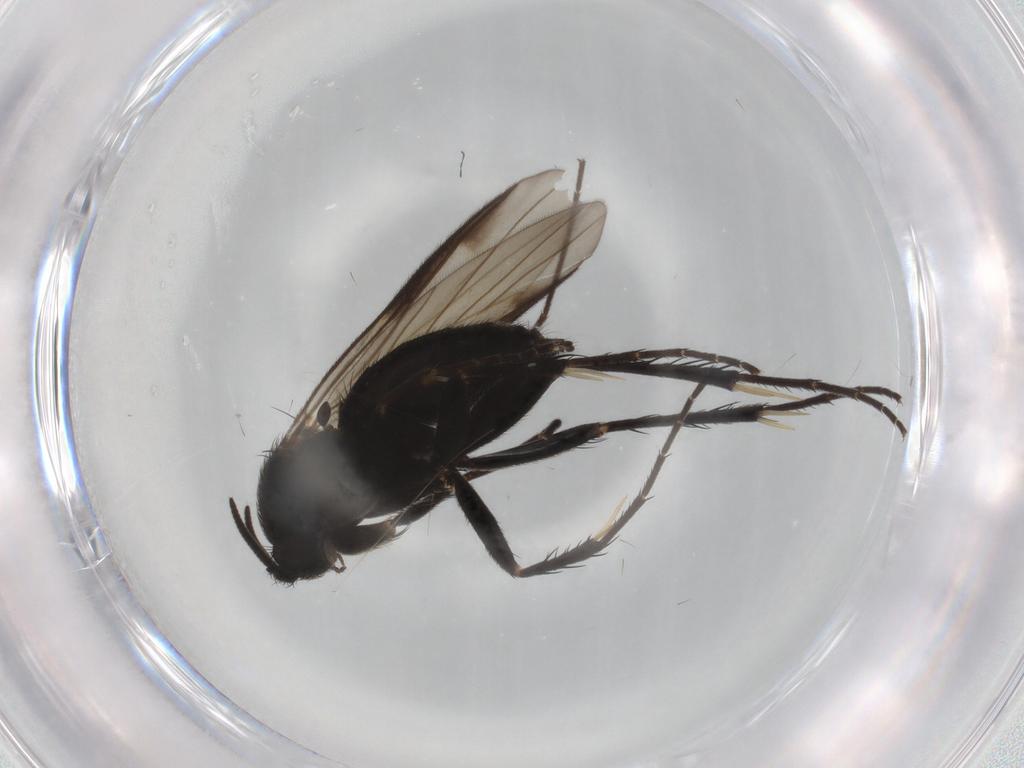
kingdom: Animalia
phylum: Arthropoda
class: Insecta
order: Diptera
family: Mycetophilidae
